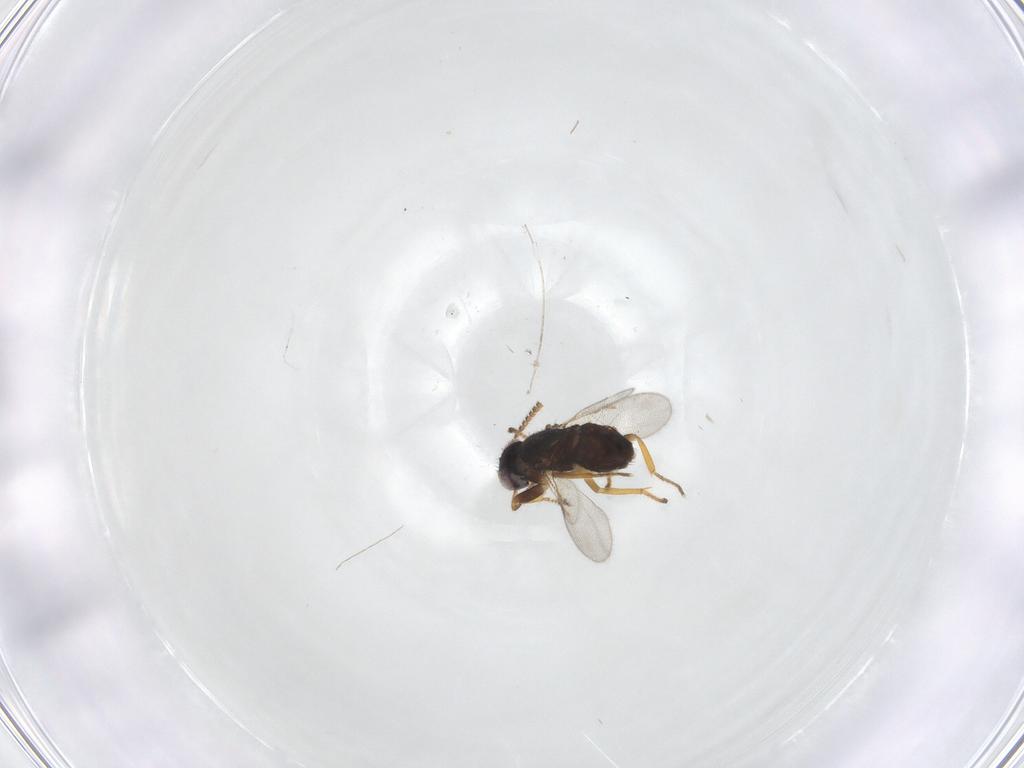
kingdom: Animalia
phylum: Arthropoda
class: Insecta
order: Hymenoptera
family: Braconidae
